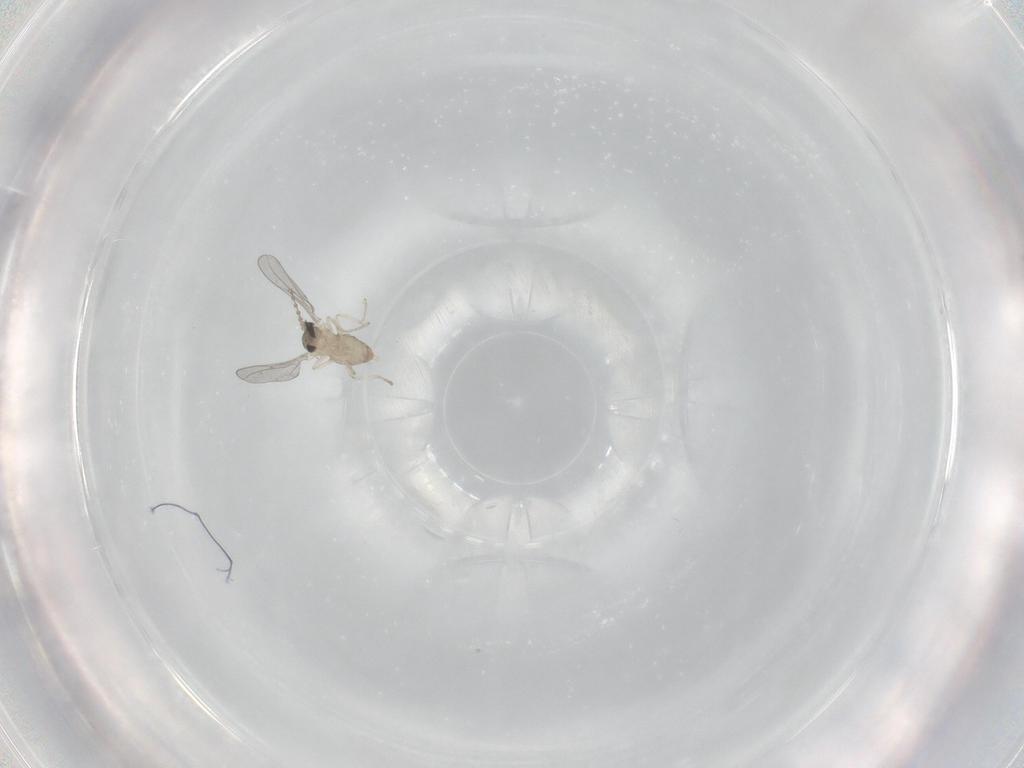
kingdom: Animalia
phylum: Arthropoda
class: Insecta
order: Diptera
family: Cecidomyiidae
